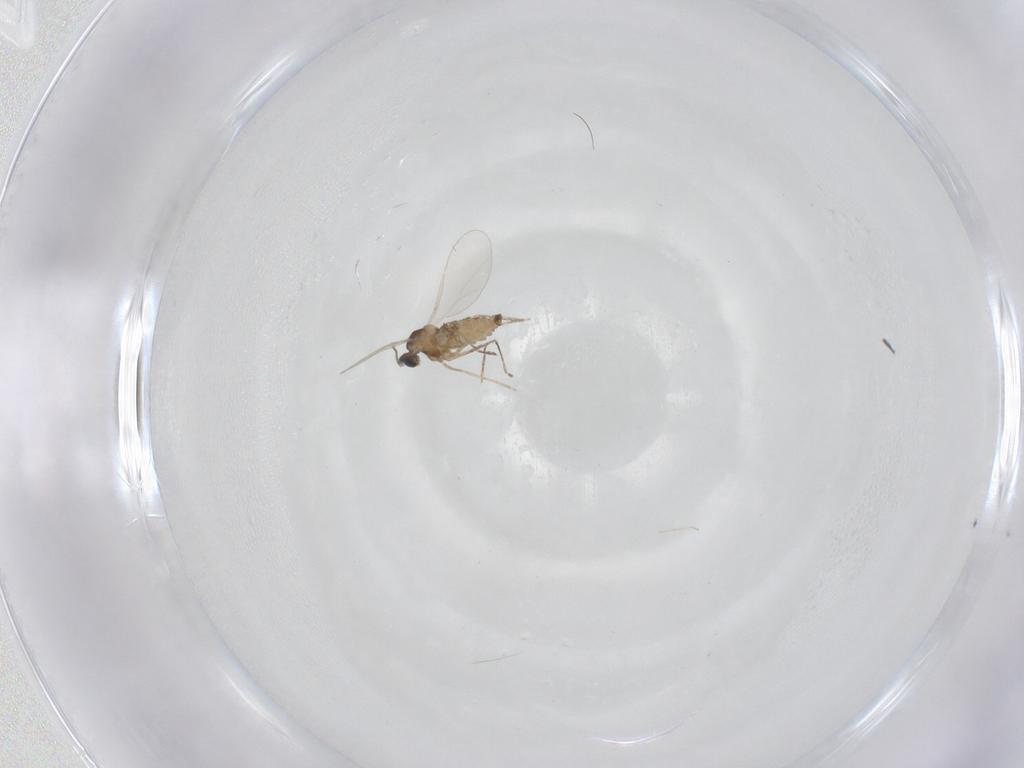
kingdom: Animalia
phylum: Arthropoda
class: Insecta
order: Diptera
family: Cecidomyiidae
